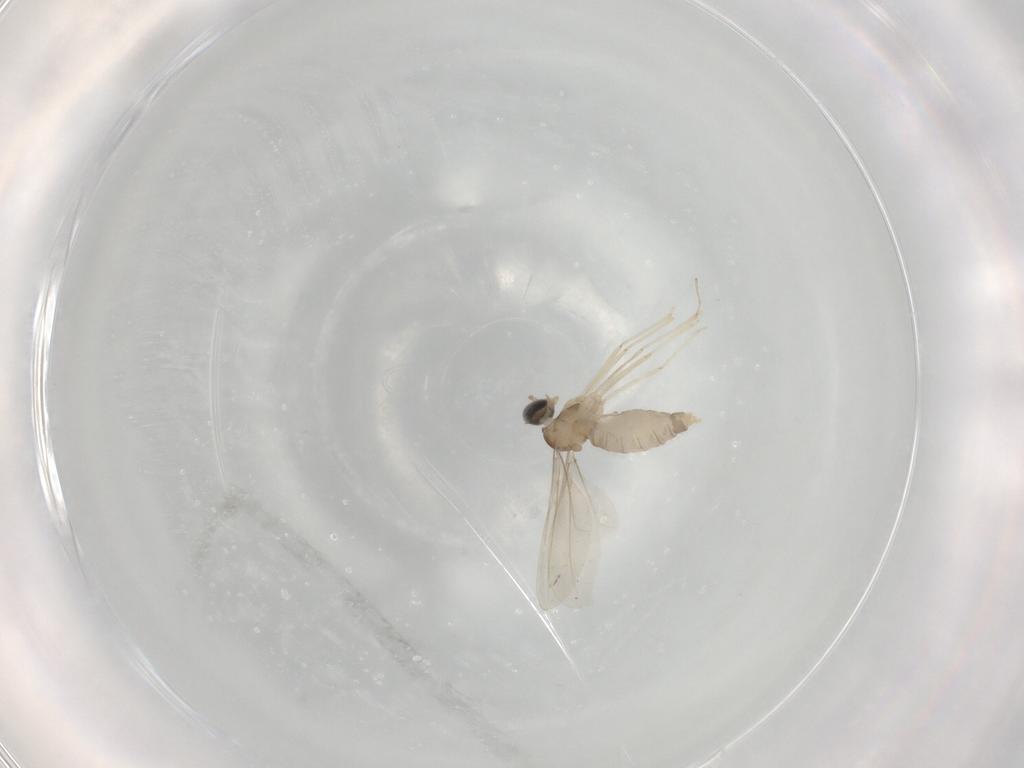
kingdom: Animalia
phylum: Arthropoda
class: Insecta
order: Diptera
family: Cecidomyiidae
